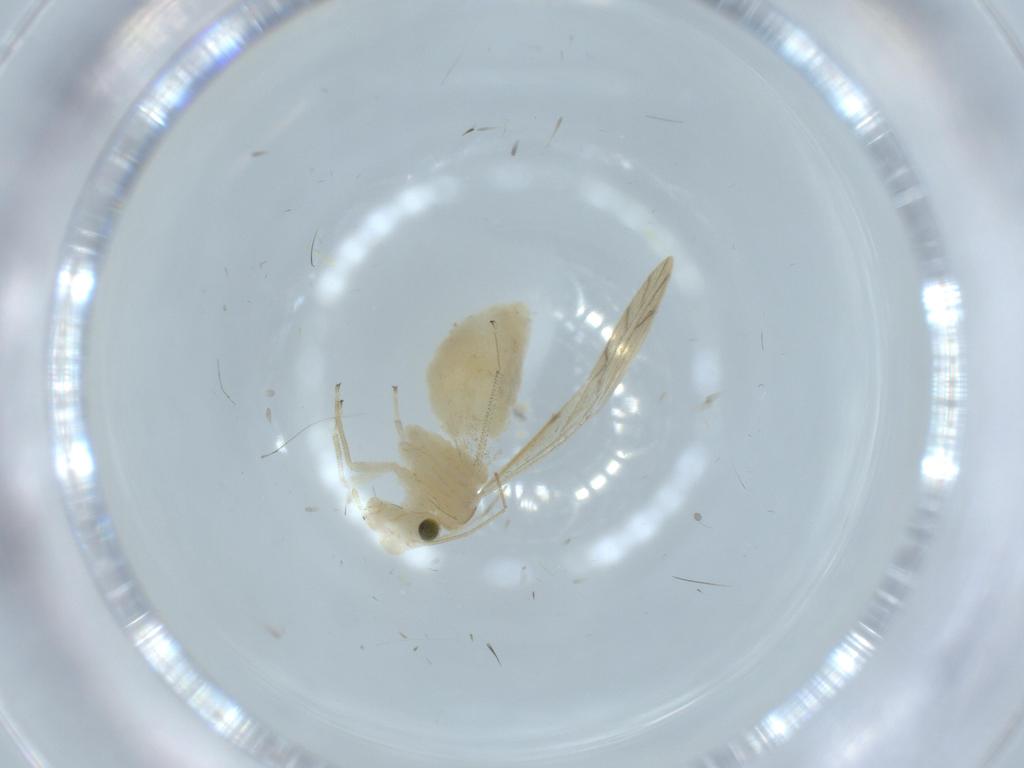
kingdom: Animalia
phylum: Arthropoda
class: Insecta
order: Psocodea
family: Caeciliusidae
